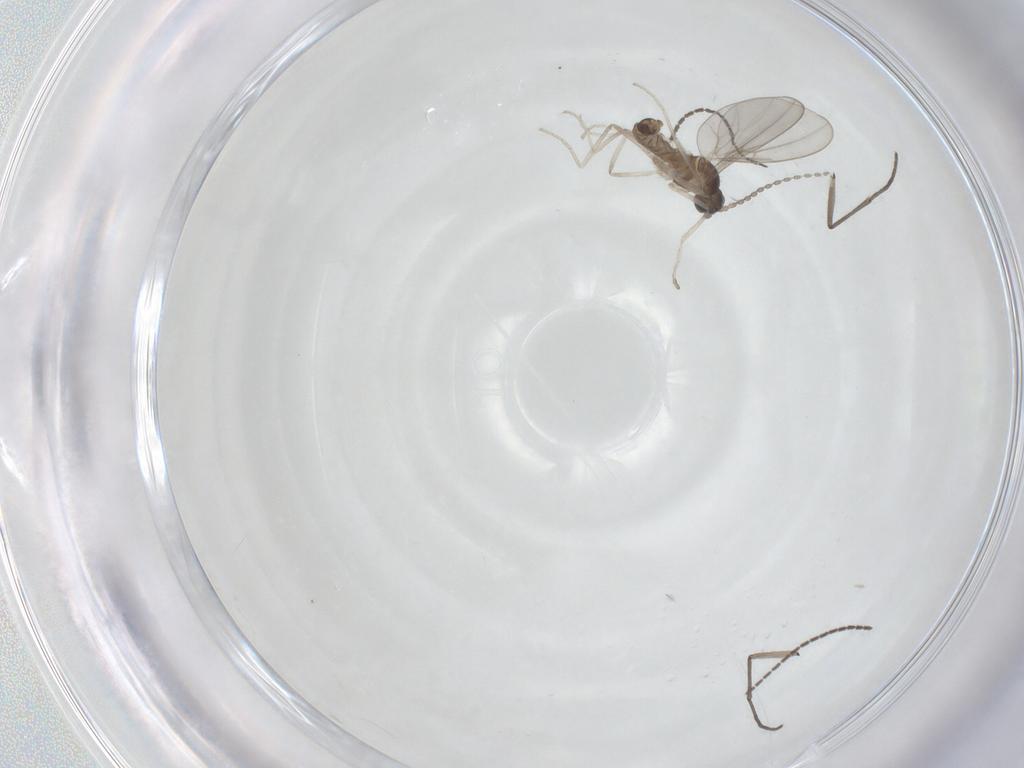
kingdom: Animalia
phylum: Arthropoda
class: Insecta
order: Diptera
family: Cecidomyiidae
